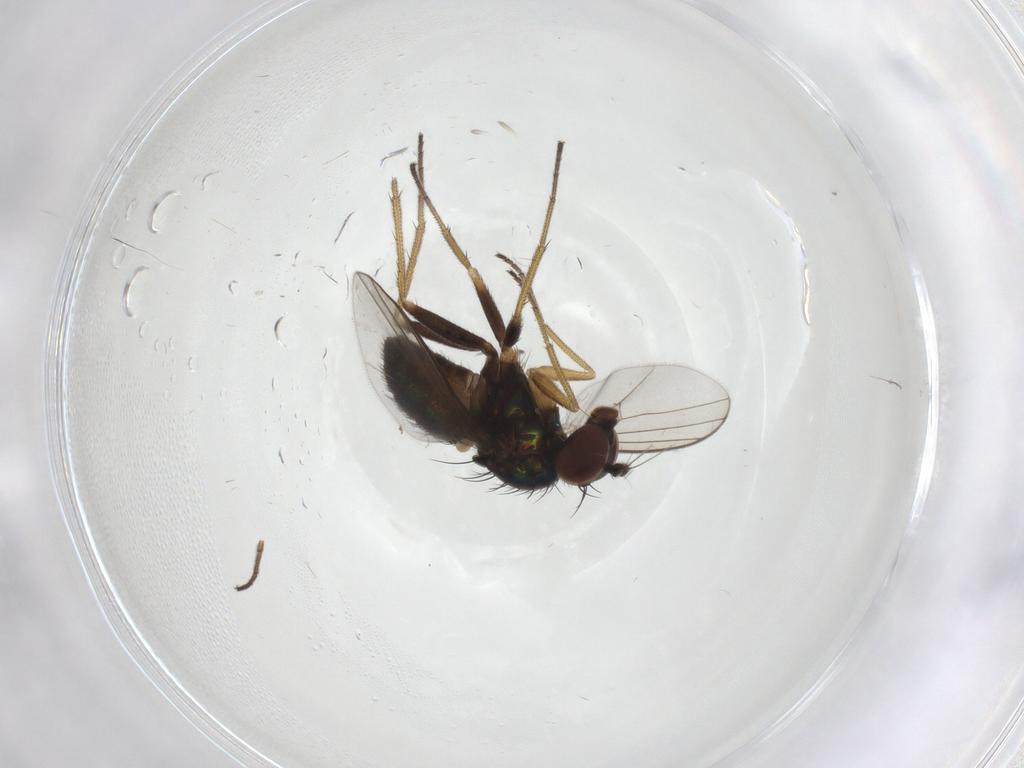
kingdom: Animalia
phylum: Arthropoda
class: Insecta
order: Diptera
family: Dolichopodidae
